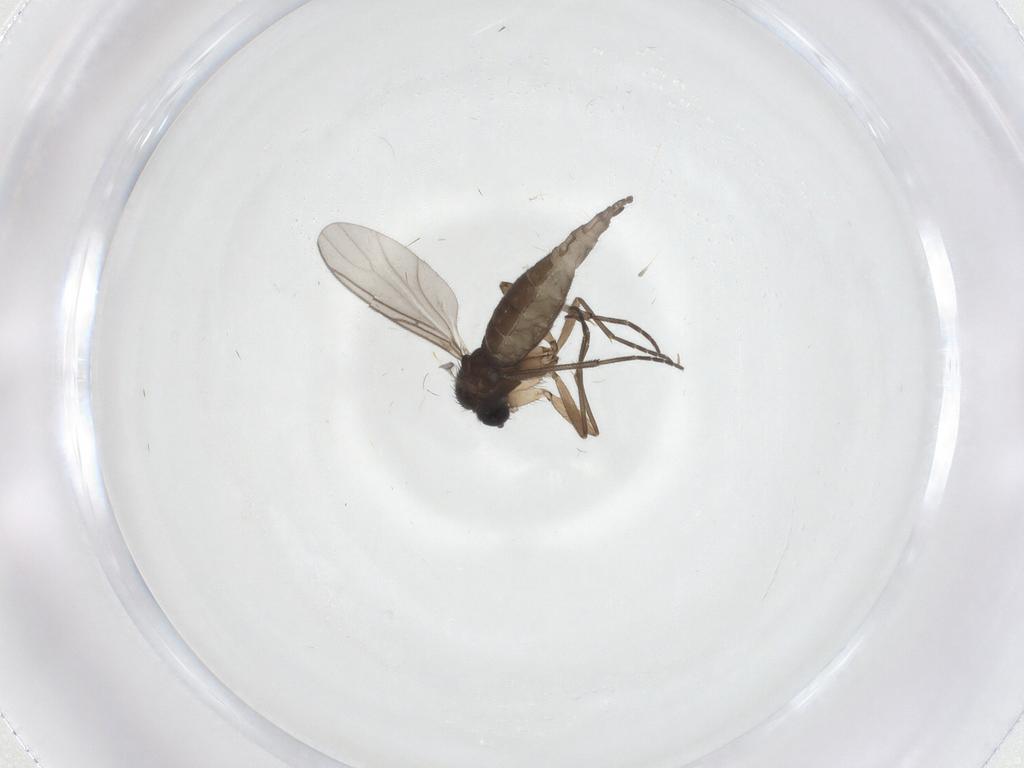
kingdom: Animalia
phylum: Arthropoda
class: Insecta
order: Diptera
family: Sciaridae
